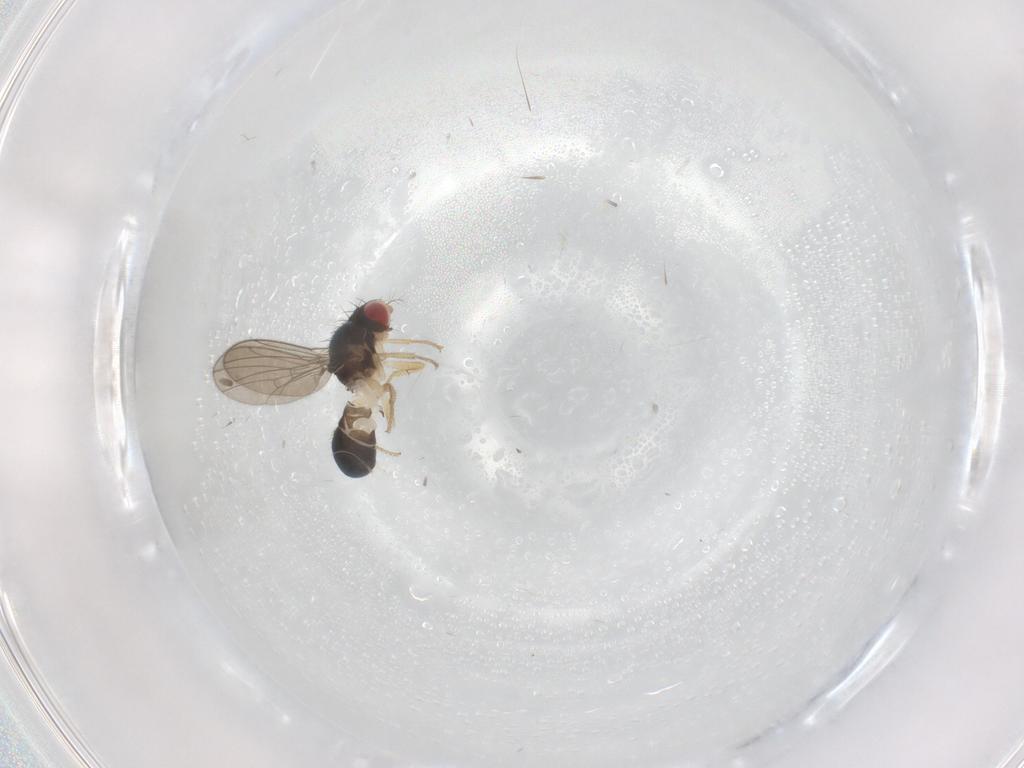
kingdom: Animalia
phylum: Arthropoda
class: Insecta
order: Diptera
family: Drosophilidae
